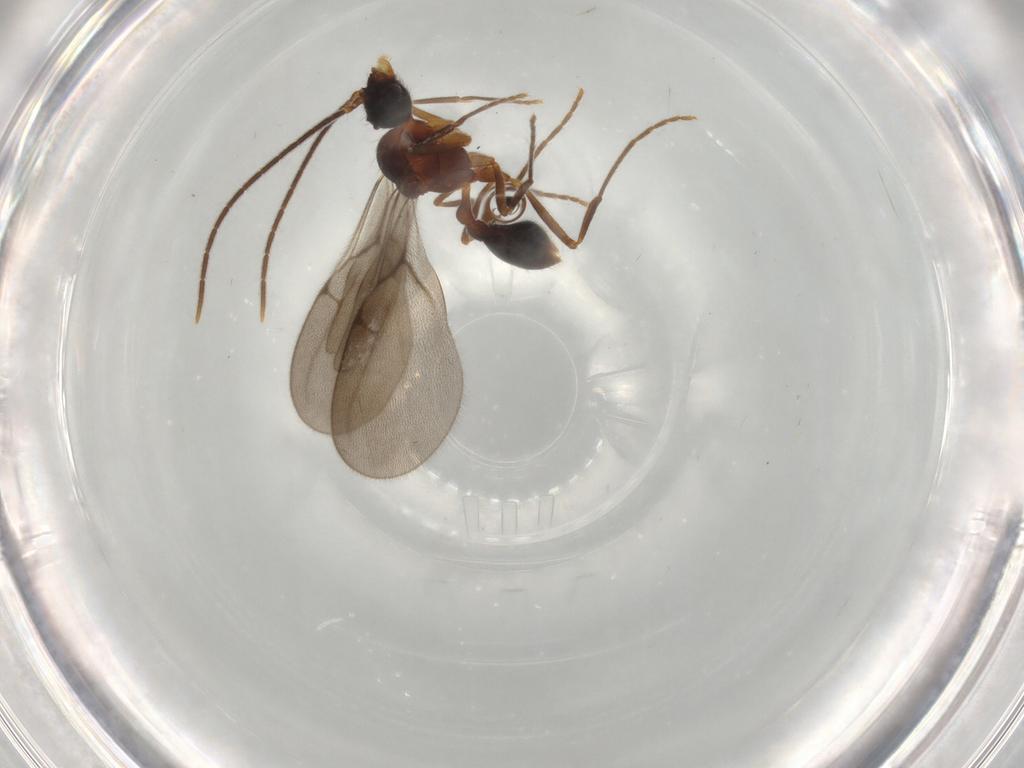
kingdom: Animalia
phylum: Arthropoda
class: Insecta
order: Hymenoptera
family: Formicidae
